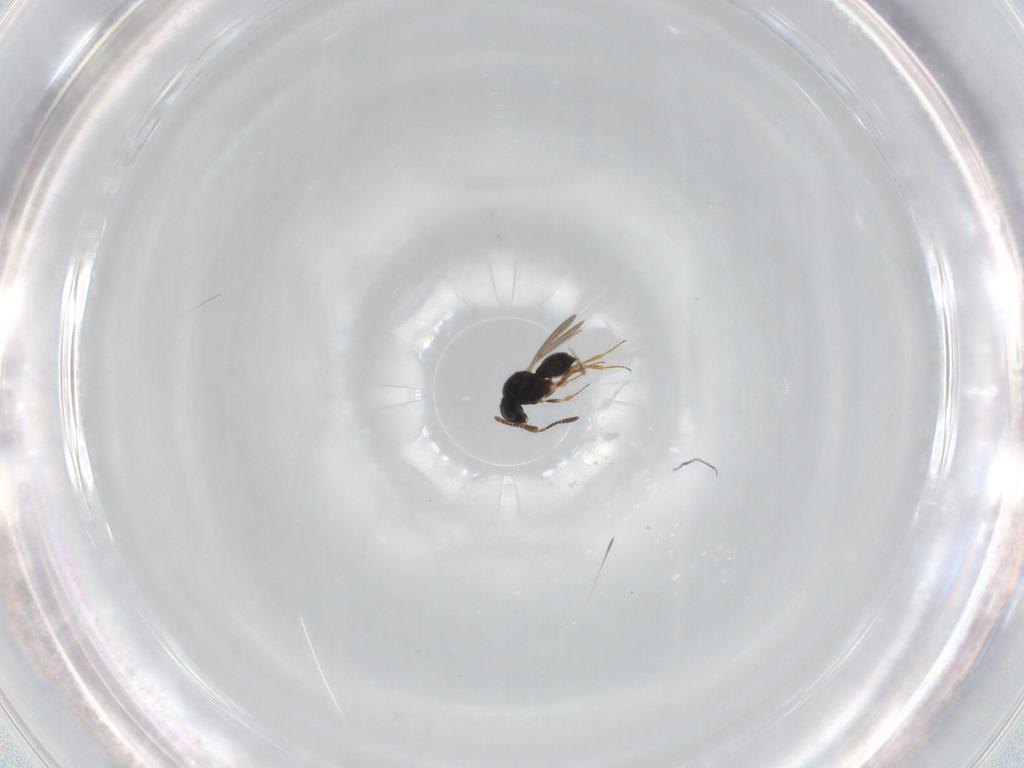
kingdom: Animalia
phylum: Arthropoda
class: Insecta
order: Hymenoptera
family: Scelionidae
